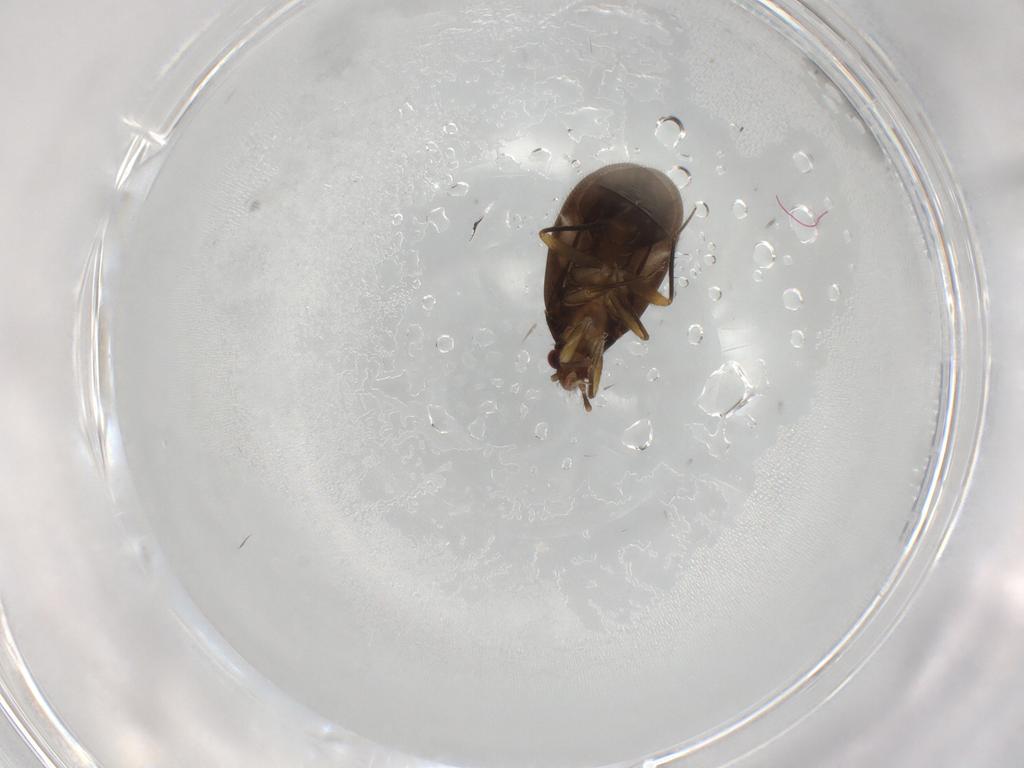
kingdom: Animalia
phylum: Arthropoda
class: Insecta
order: Hemiptera
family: Ceratocombidae
